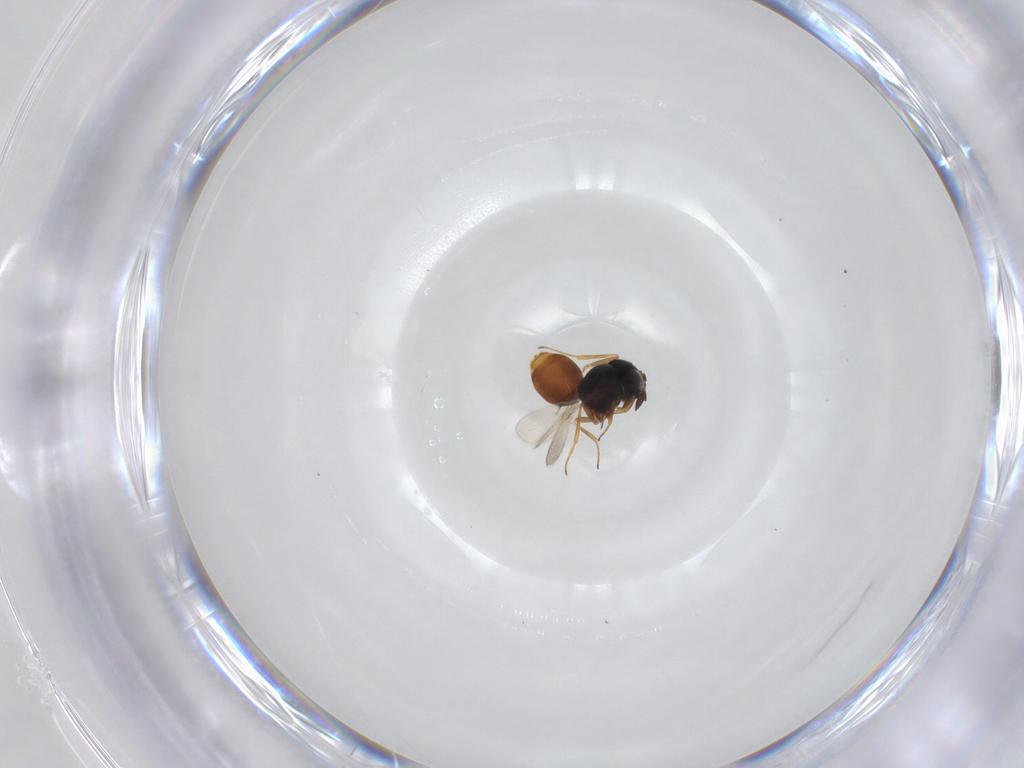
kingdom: Animalia
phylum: Arthropoda
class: Insecta
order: Hymenoptera
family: Scelionidae
